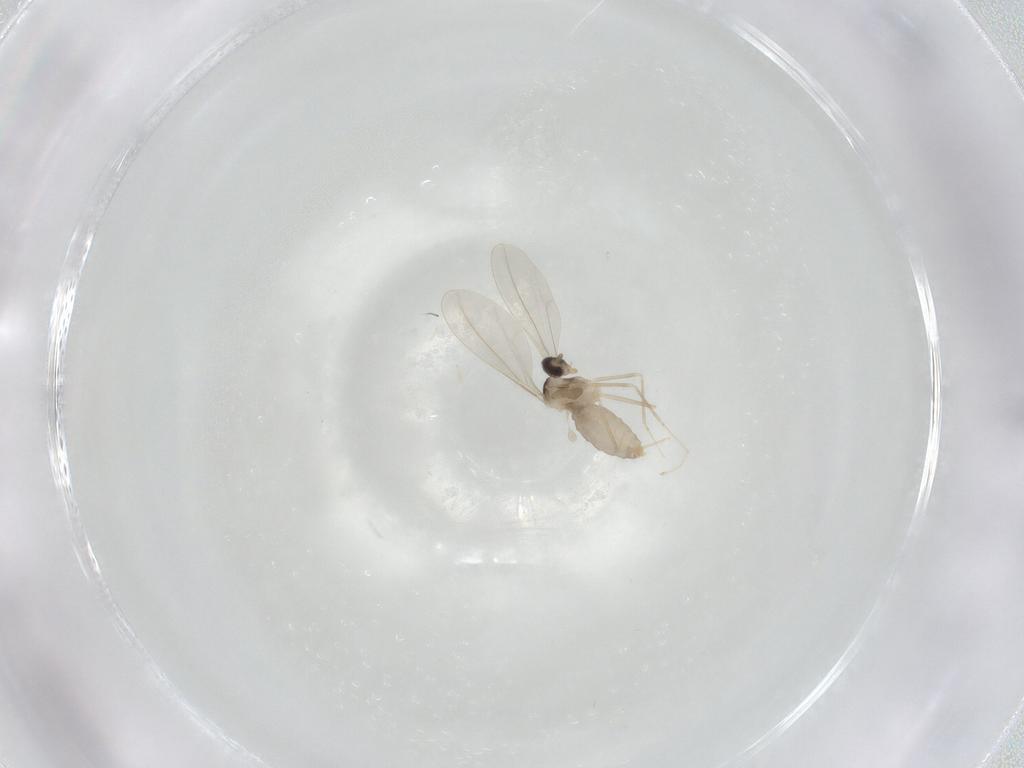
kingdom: Animalia
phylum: Arthropoda
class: Insecta
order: Diptera
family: Cecidomyiidae
